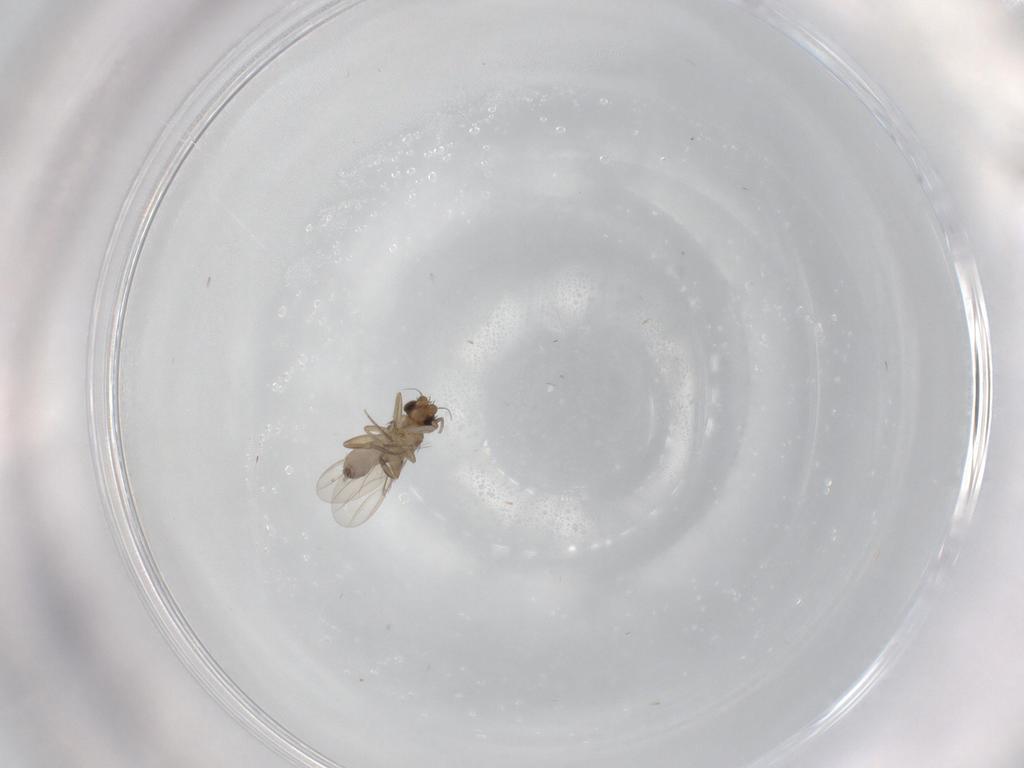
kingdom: Animalia
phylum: Arthropoda
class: Insecta
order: Diptera
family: Phoridae
